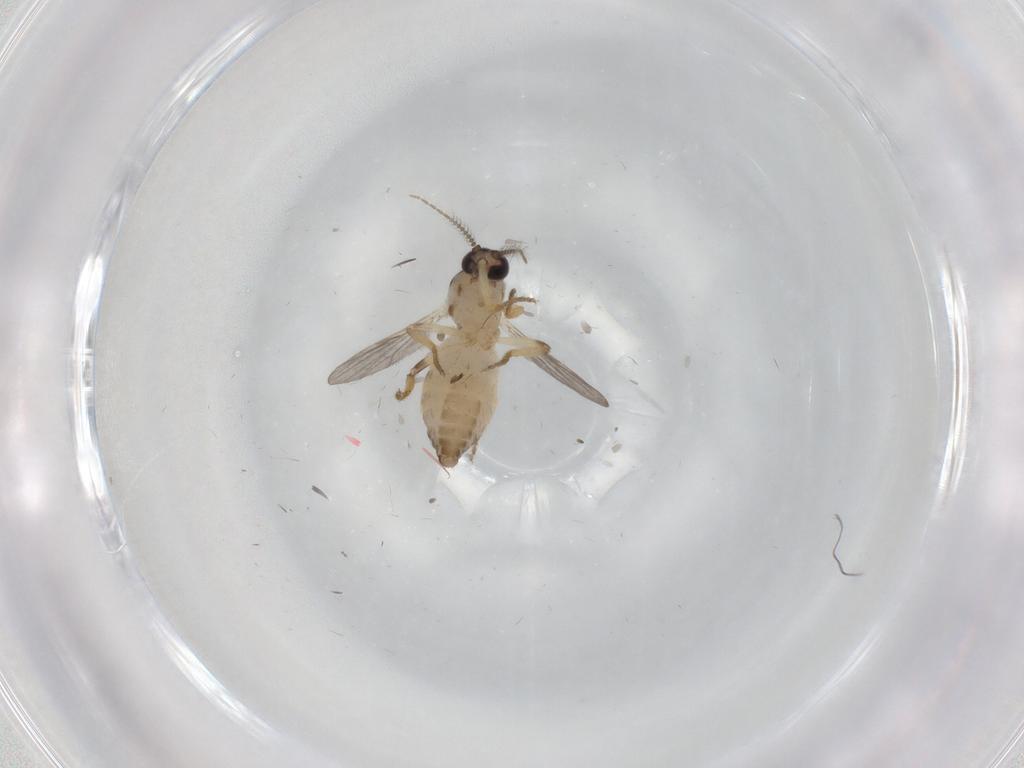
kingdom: Animalia
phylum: Arthropoda
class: Insecta
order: Diptera
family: Ceratopogonidae
